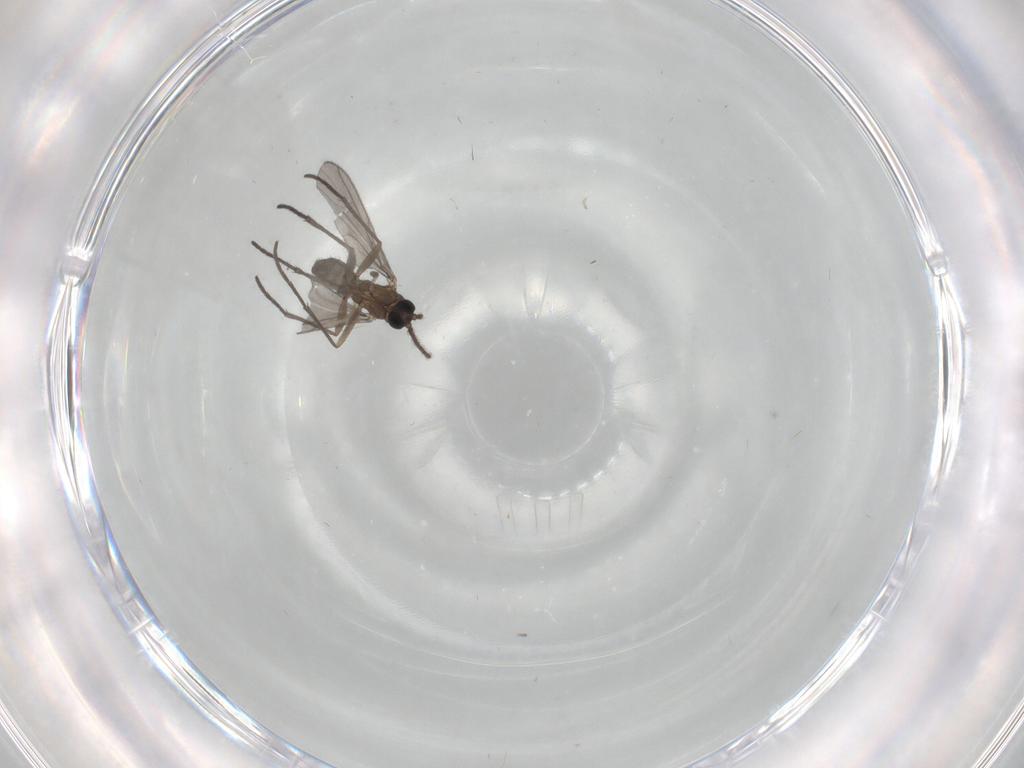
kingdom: Animalia
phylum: Arthropoda
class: Insecta
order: Diptera
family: Sciaridae
